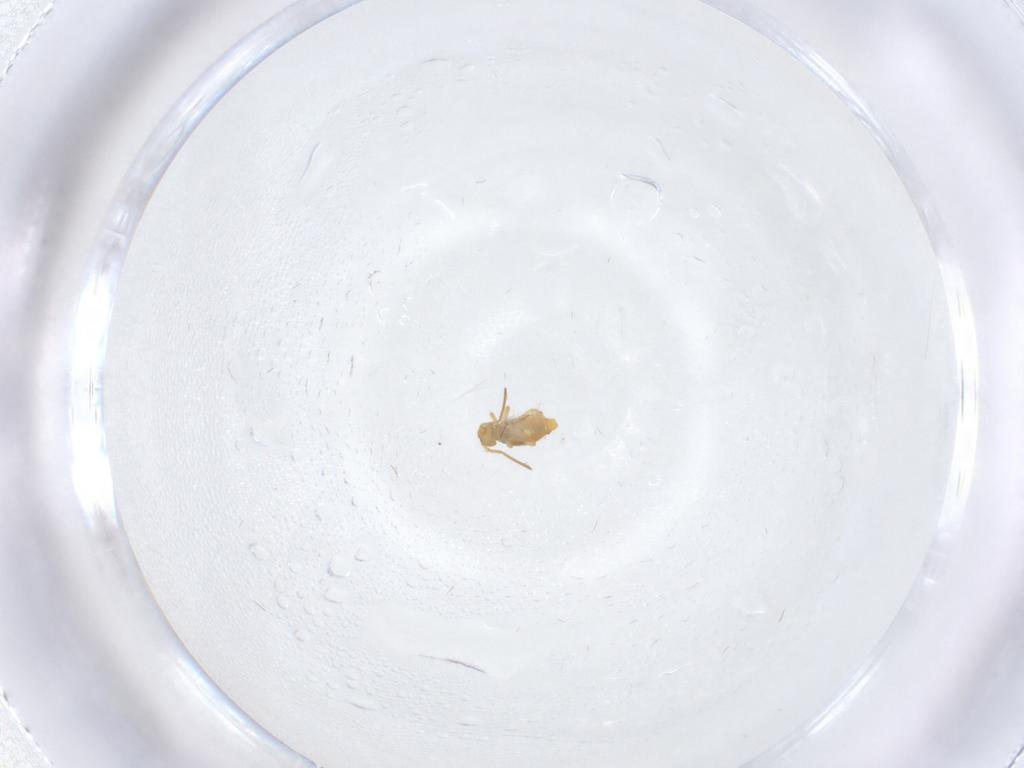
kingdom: Animalia
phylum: Arthropoda
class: Collembola
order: Symphypleona
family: Katiannidae
